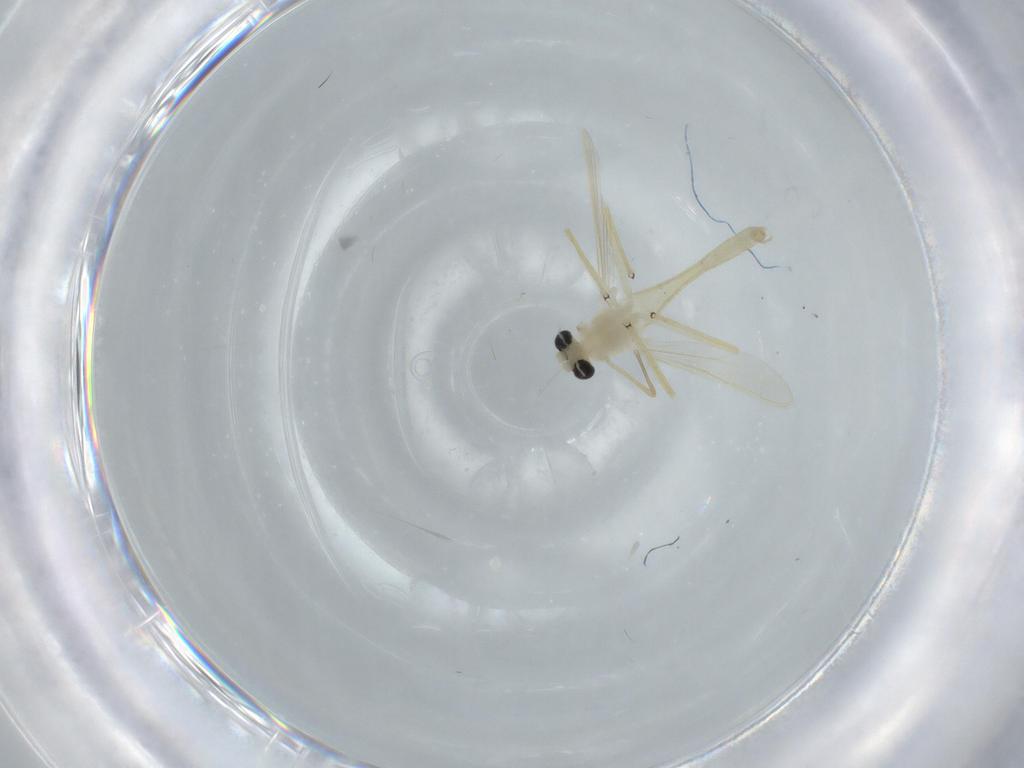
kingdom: Animalia
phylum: Arthropoda
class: Insecta
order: Diptera
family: Chironomidae
